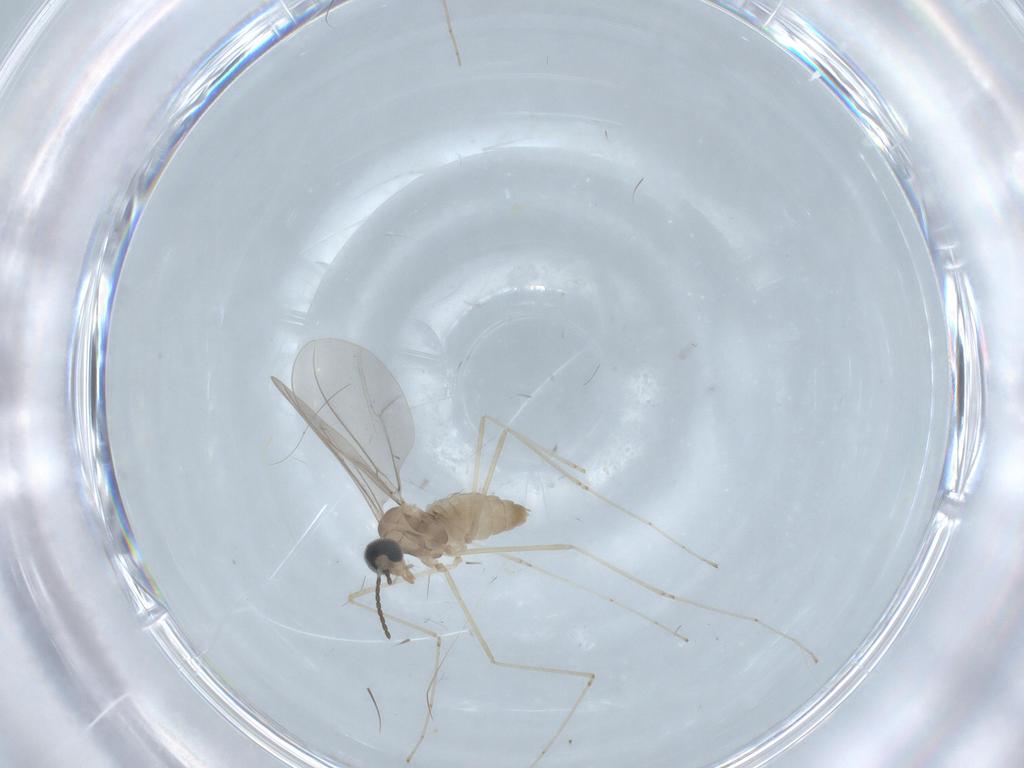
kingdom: Animalia
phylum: Arthropoda
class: Insecta
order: Diptera
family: Cecidomyiidae
